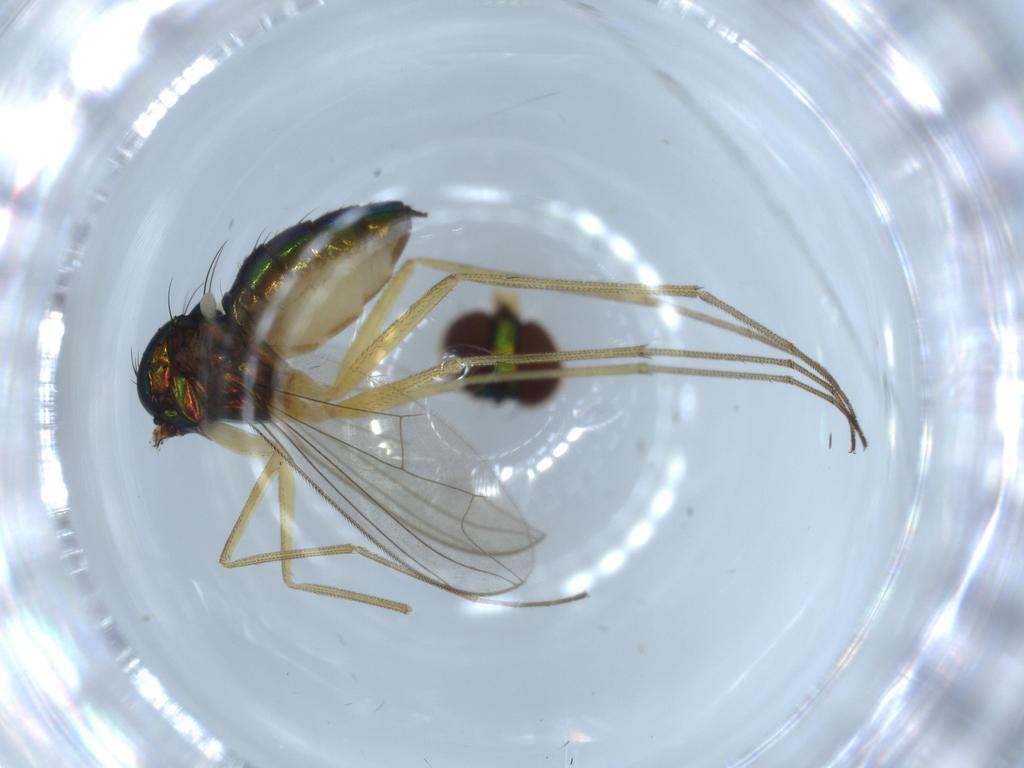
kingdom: Animalia
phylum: Arthropoda
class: Insecta
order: Diptera
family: Dolichopodidae
